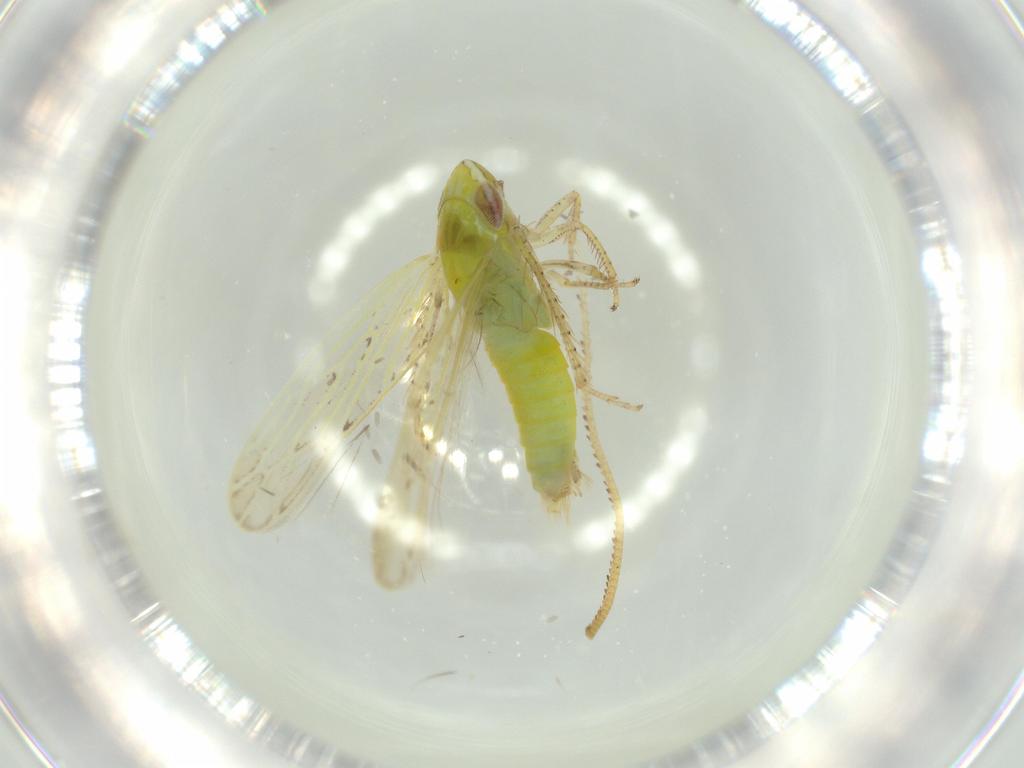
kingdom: Animalia
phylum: Arthropoda
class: Insecta
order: Hemiptera
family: Cicadellidae
